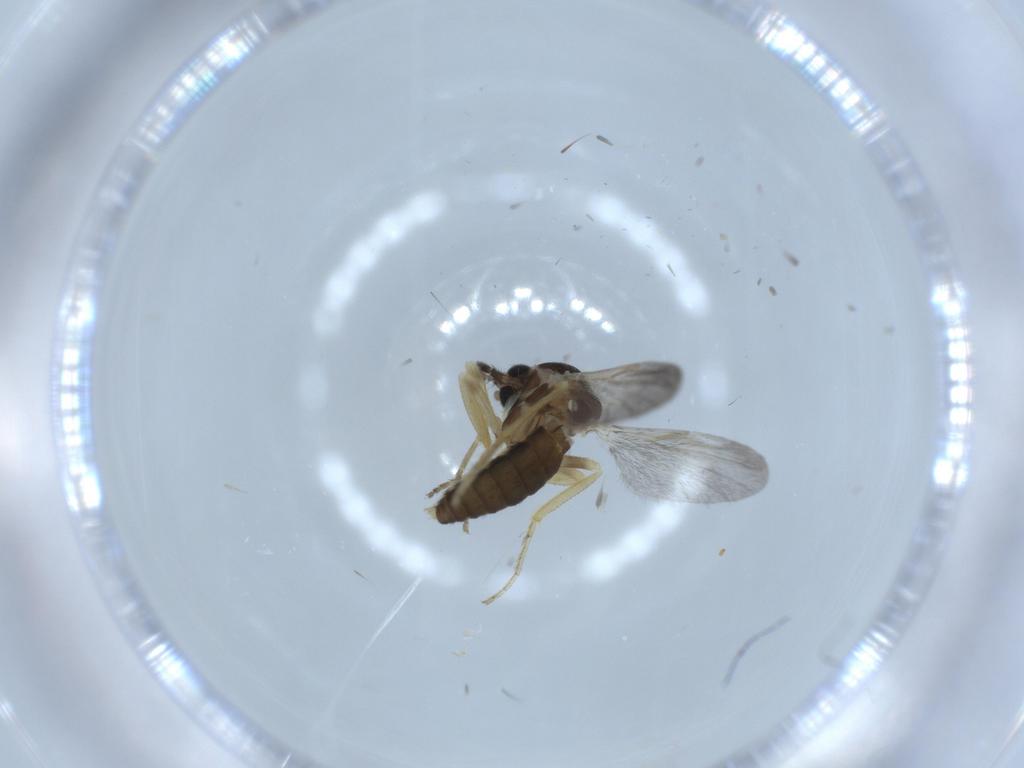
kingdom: Animalia
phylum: Arthropoda
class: Insecta
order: Diptera
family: Ceratopogonidae
